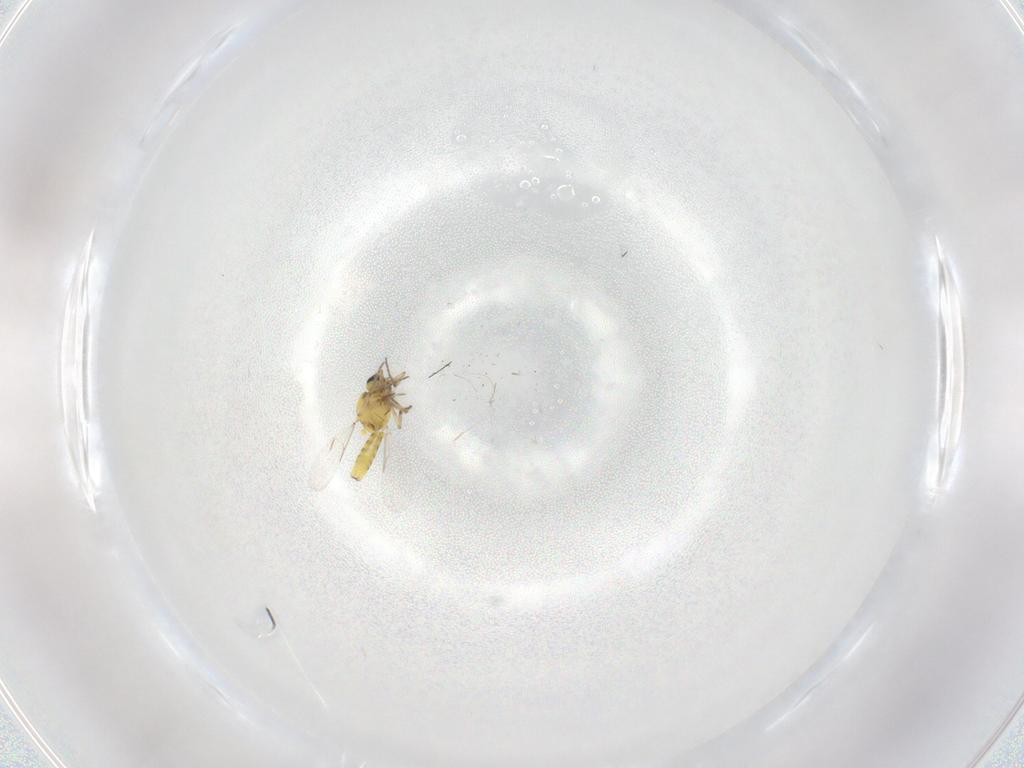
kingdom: Animalia
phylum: Arthropoda
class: Insecta
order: Diptera
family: Ceratopogonidae
